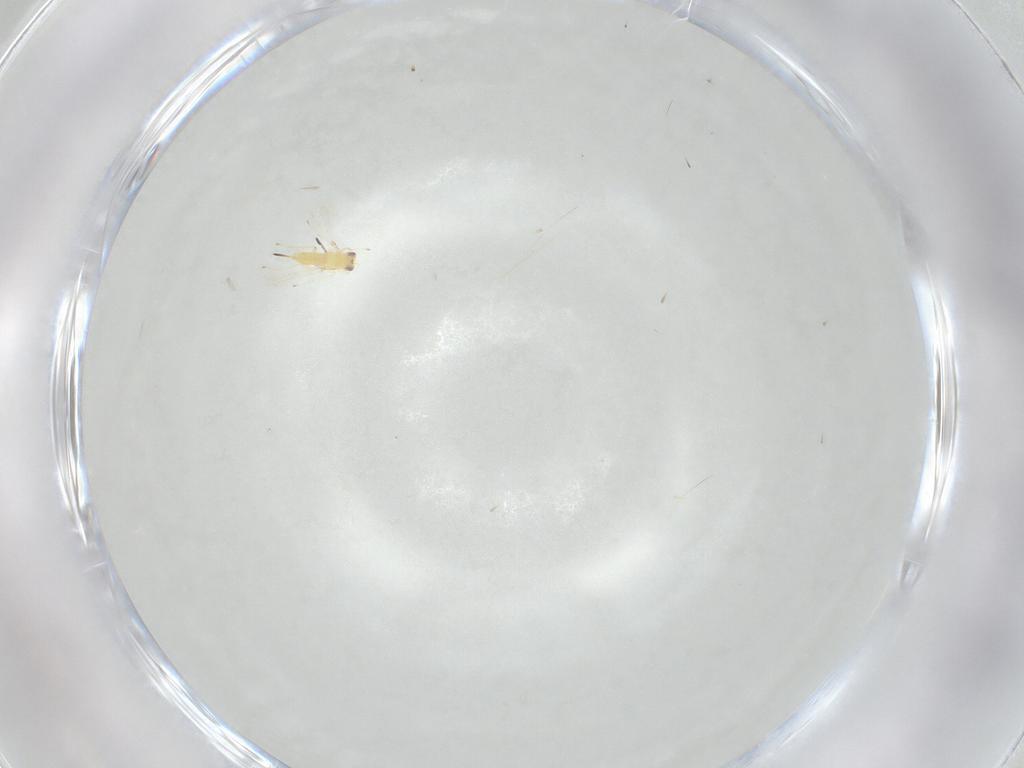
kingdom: Animalia
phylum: Arthropoda
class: Insecta
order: Hymenoptera
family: Mymaridae
